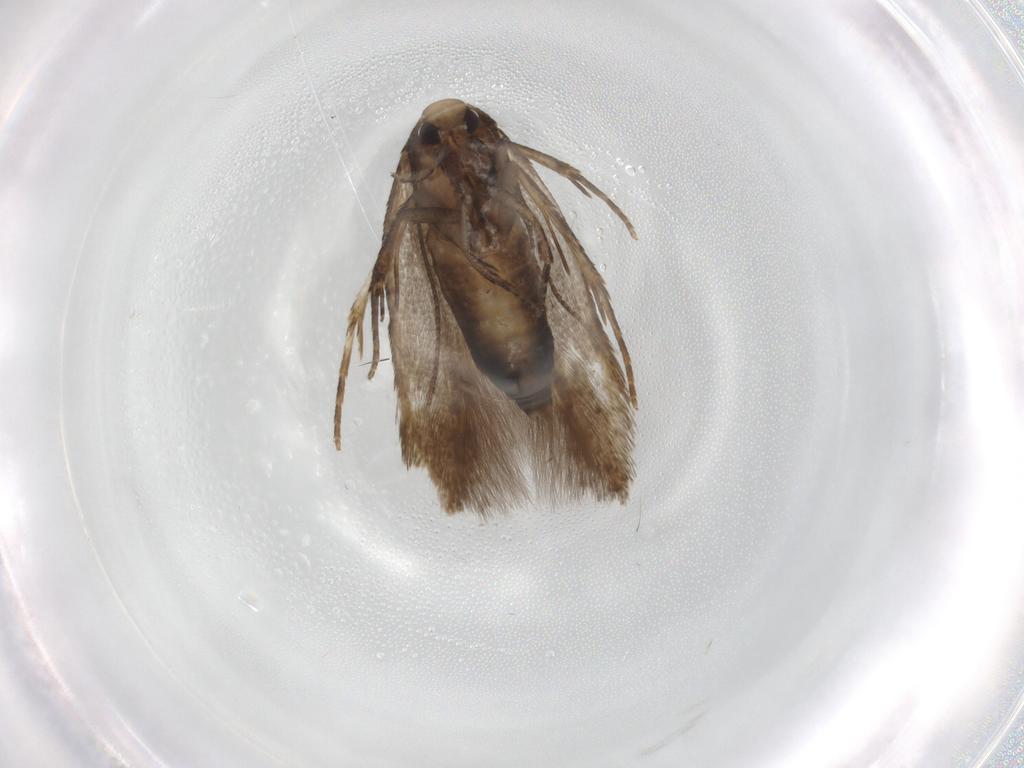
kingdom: Animalia
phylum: Arthropoda
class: Insecta
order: Lepidoptera
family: Cosmopterigidae
